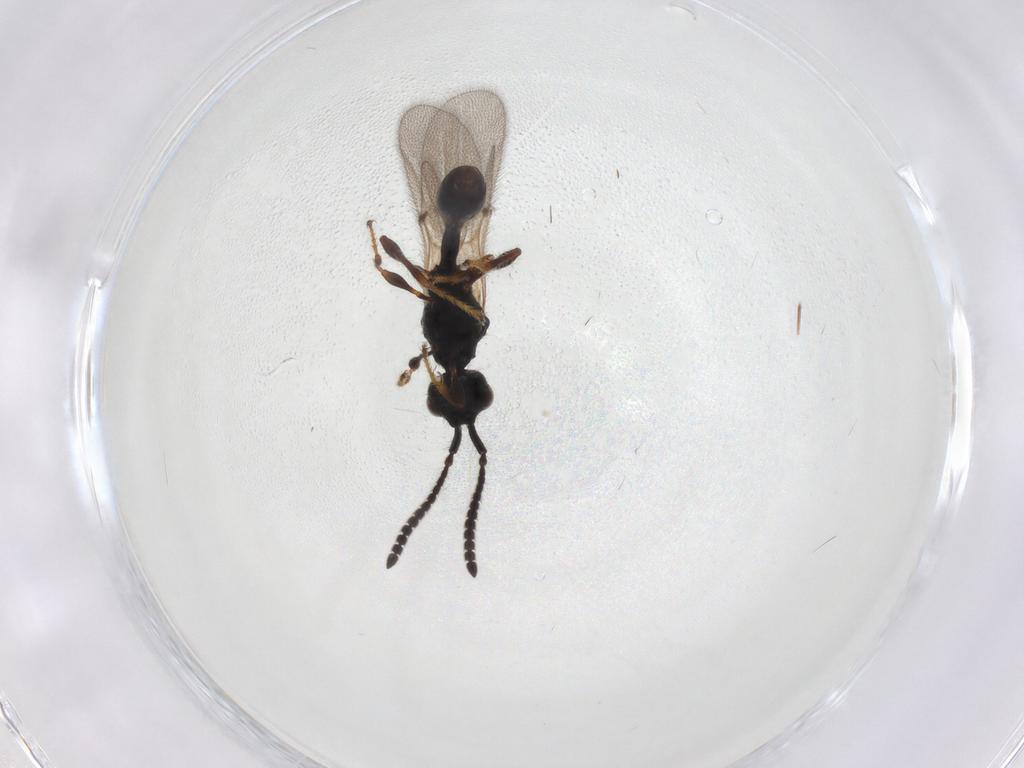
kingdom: Animalia
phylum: Arthropoda
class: Insecta
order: Hymenoptera
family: Diapriidae
